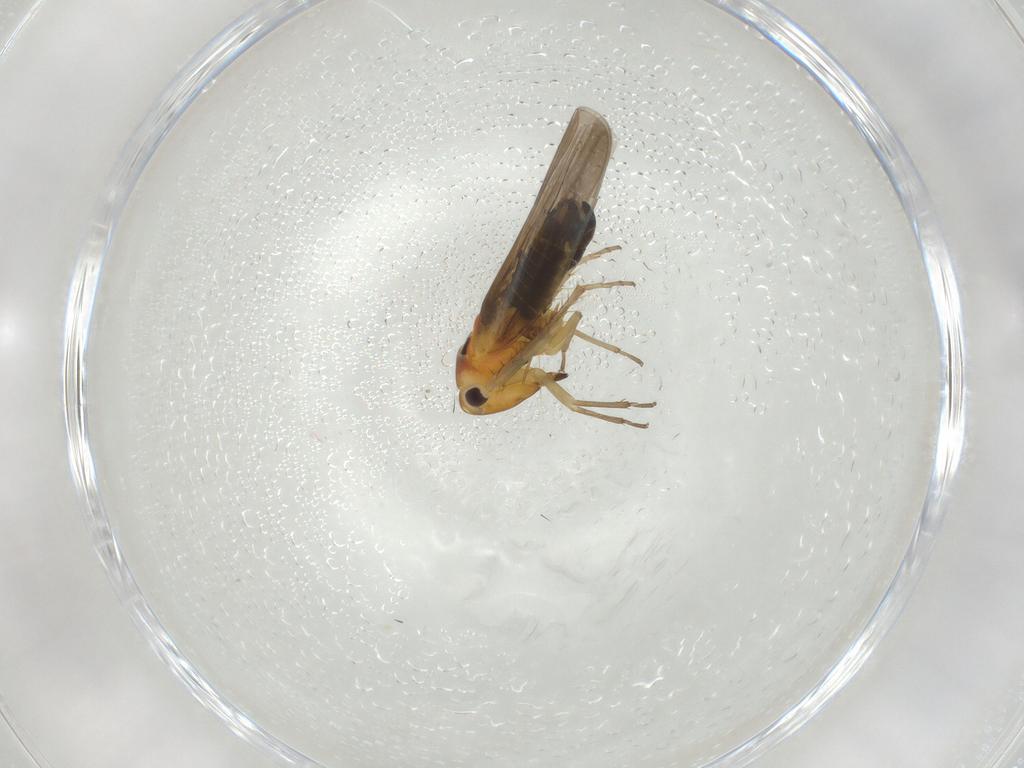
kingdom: Animalia
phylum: Arthropoda
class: Insecta
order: Hemiptera
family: Cicadellidae
